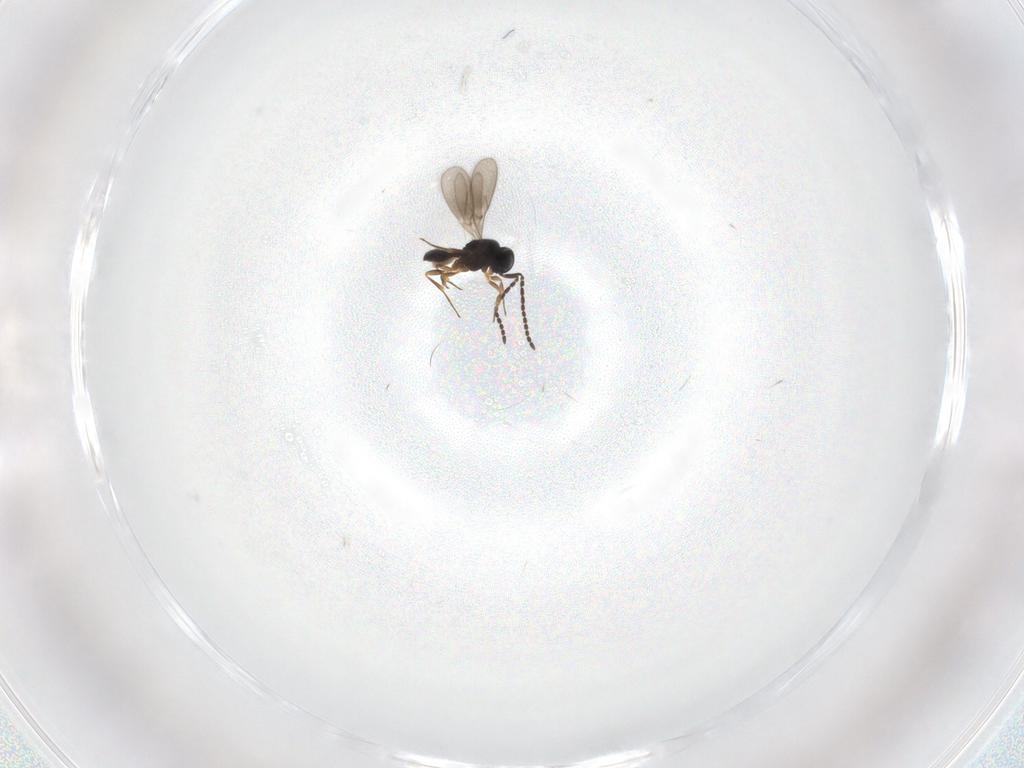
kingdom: Animalia
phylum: Arthropoda
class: Insecta
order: Hymenoptera
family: Scelionidae
